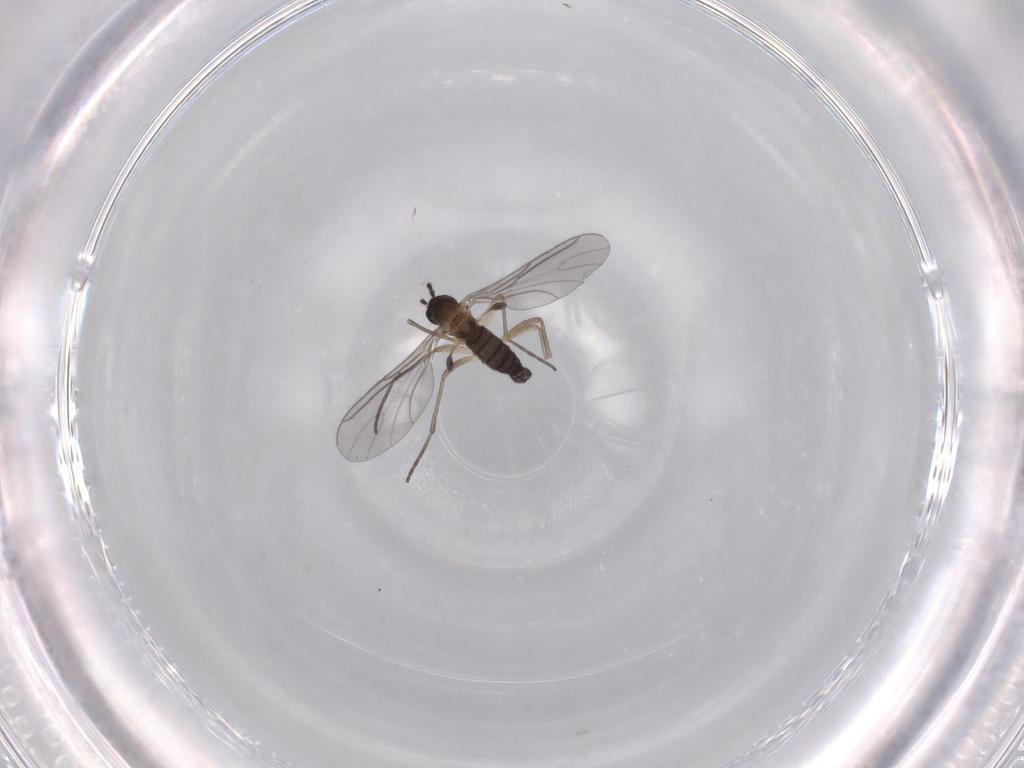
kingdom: Animalia
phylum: Arthropoda
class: Insecta
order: Diptera
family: Sciaridae
